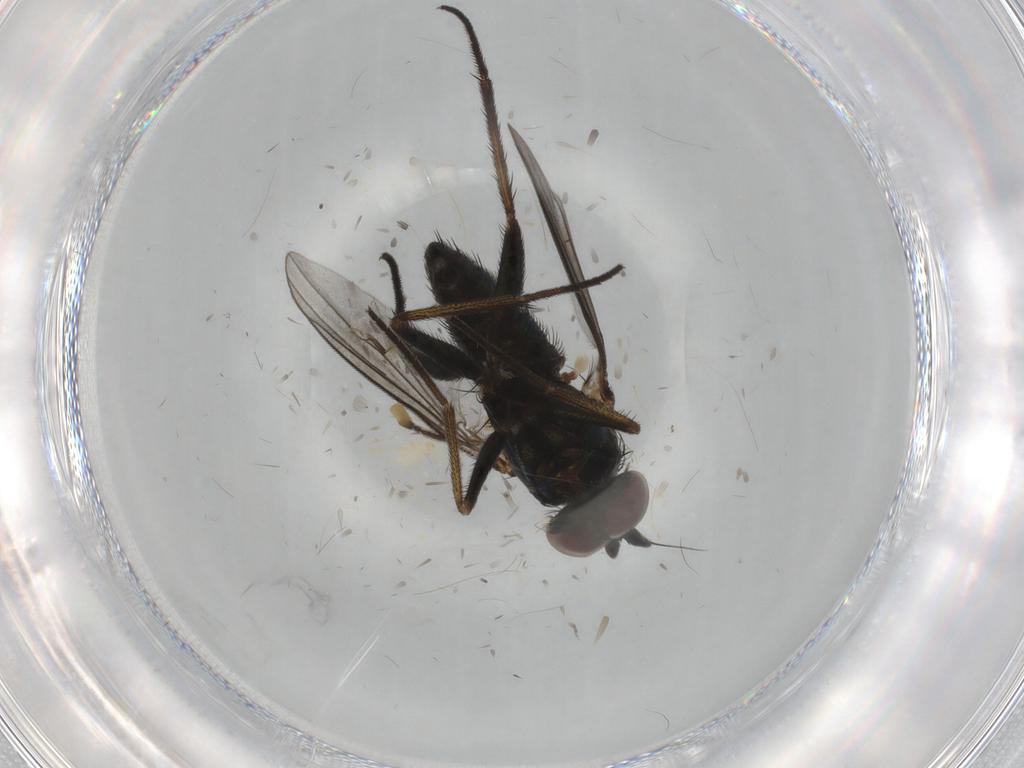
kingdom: Animalia
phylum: Arthropoda
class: Insecta
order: Diptera
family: Dolichopodidae
